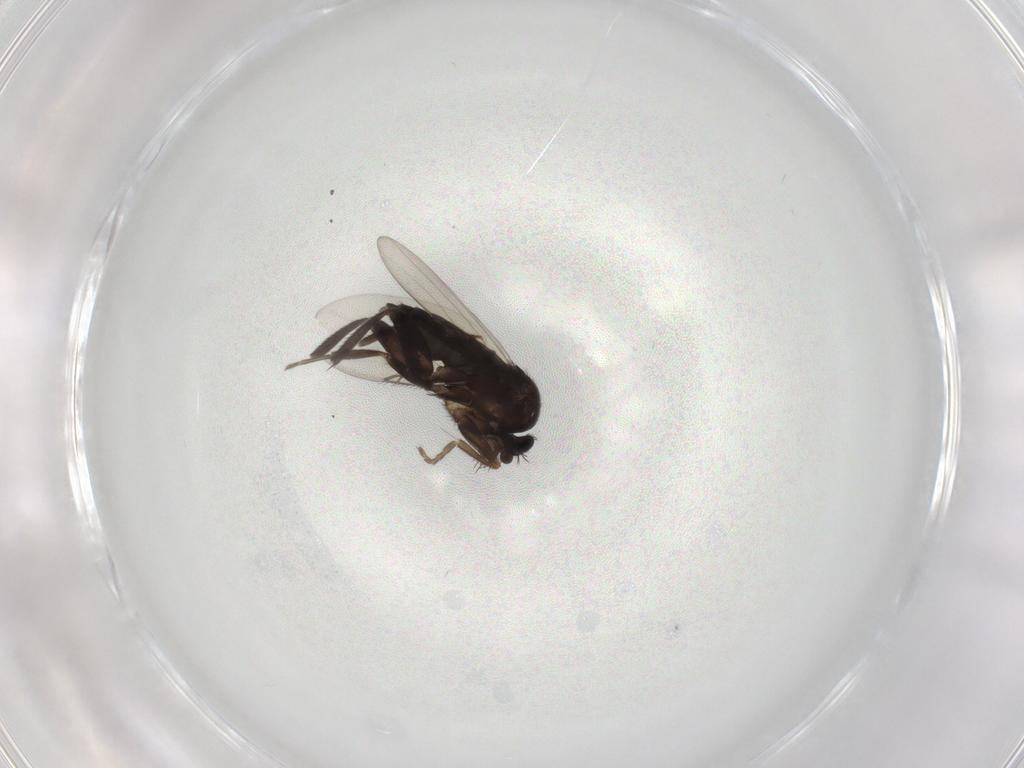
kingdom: Animalia
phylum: Arthropoda
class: Insecta
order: Diptera
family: Phoridae
